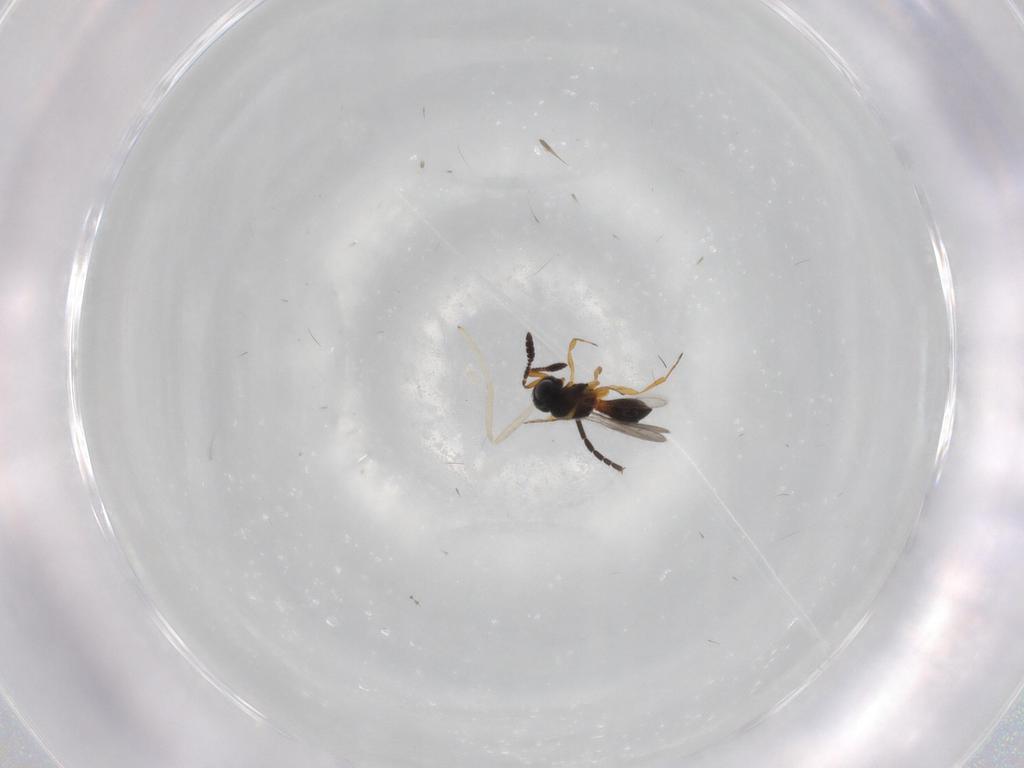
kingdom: Animalia
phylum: Arthropoda
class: Insecta
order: Hymenoptera
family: Scelionidae
